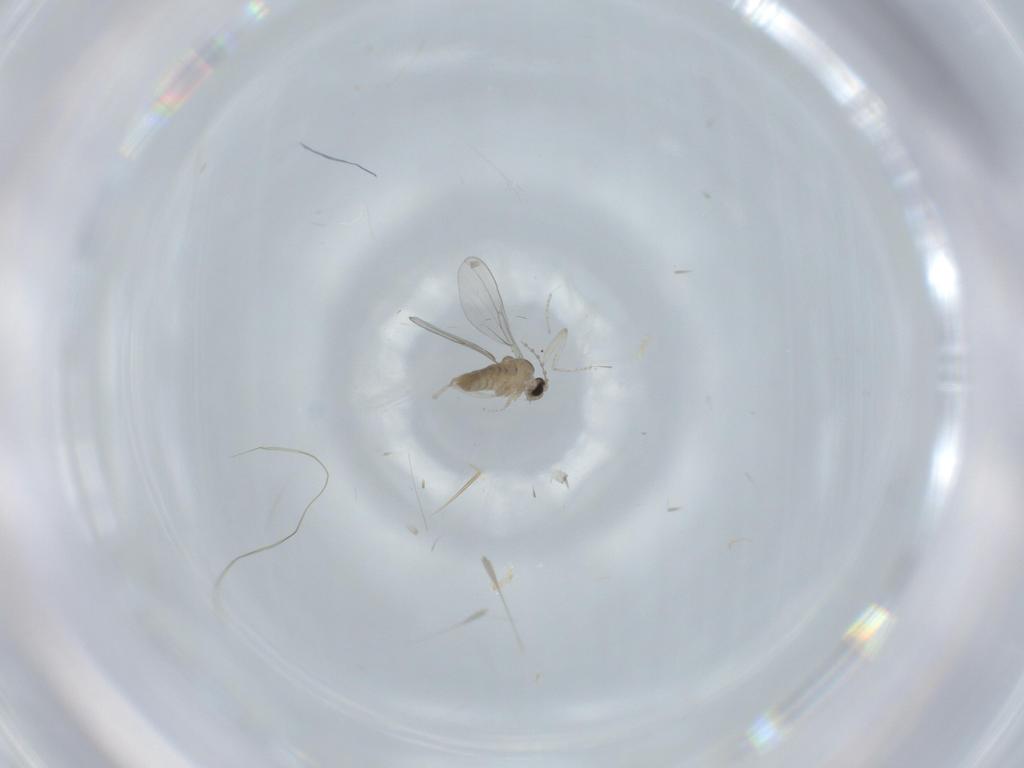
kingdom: Animalia
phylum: Arthropoda
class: Insecta
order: Diptera
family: Cecidomyiidae
